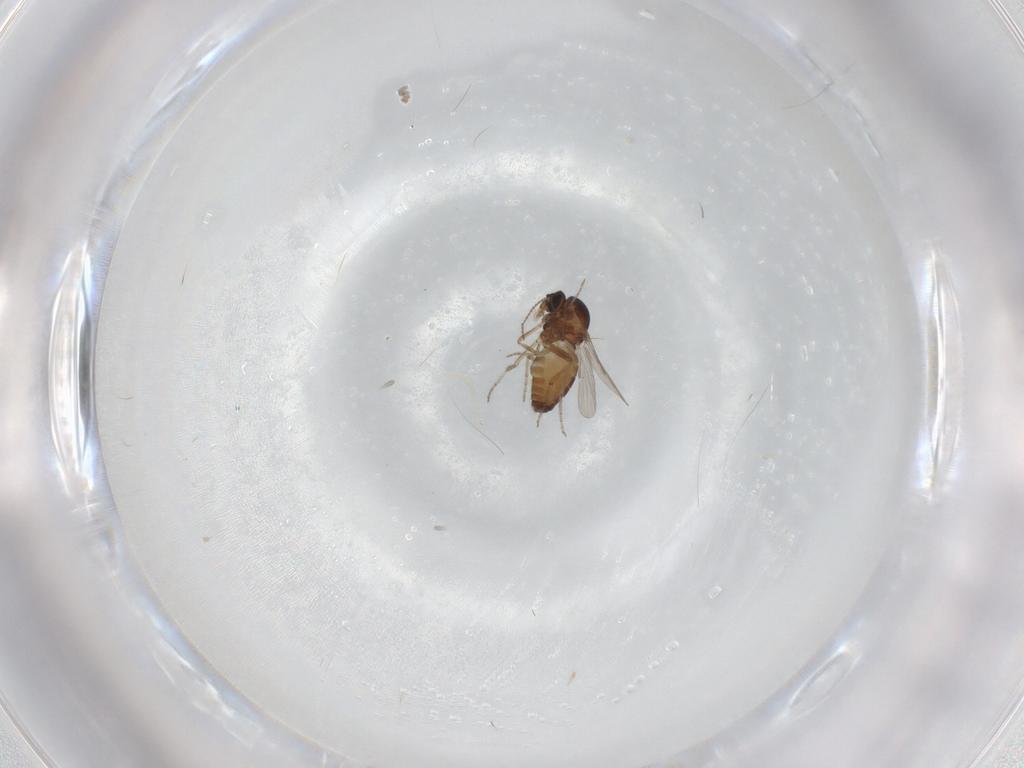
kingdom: Animalia
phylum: Arthropoda
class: Insecta
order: Diptera
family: Ceratopogonidae
